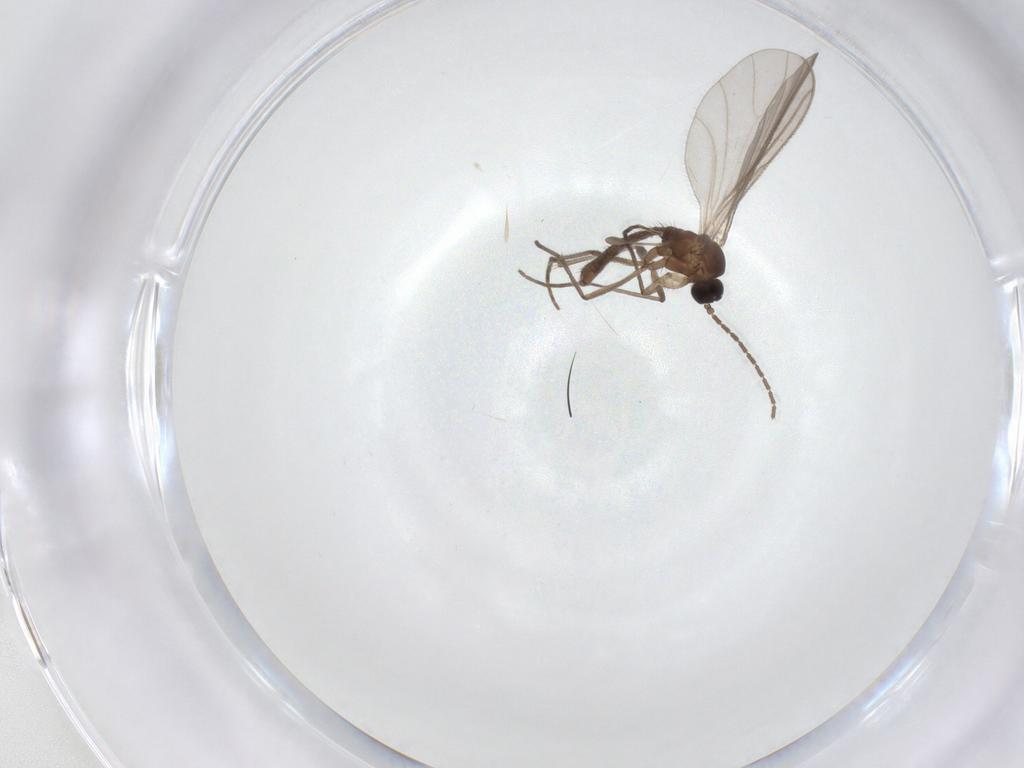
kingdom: Animalia
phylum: Arthropoda
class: Insecta
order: Diptera
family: Sciaridae
